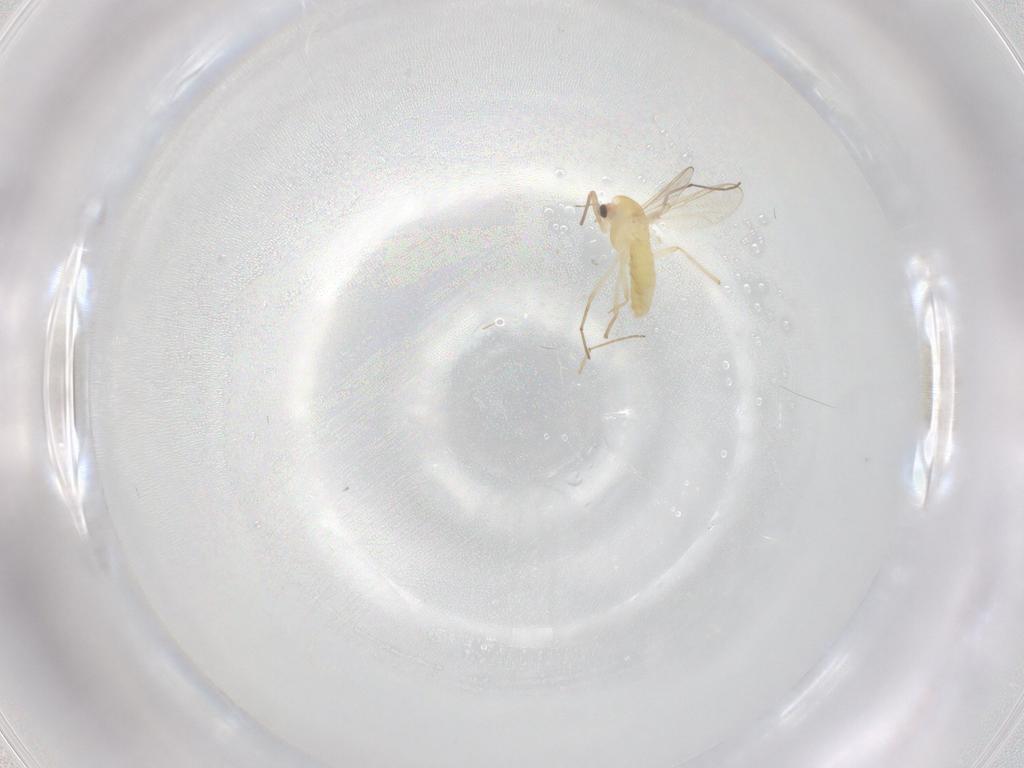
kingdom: Animalia
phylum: Arthropoda
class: Insecta
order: Diptera
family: Chironomidae
